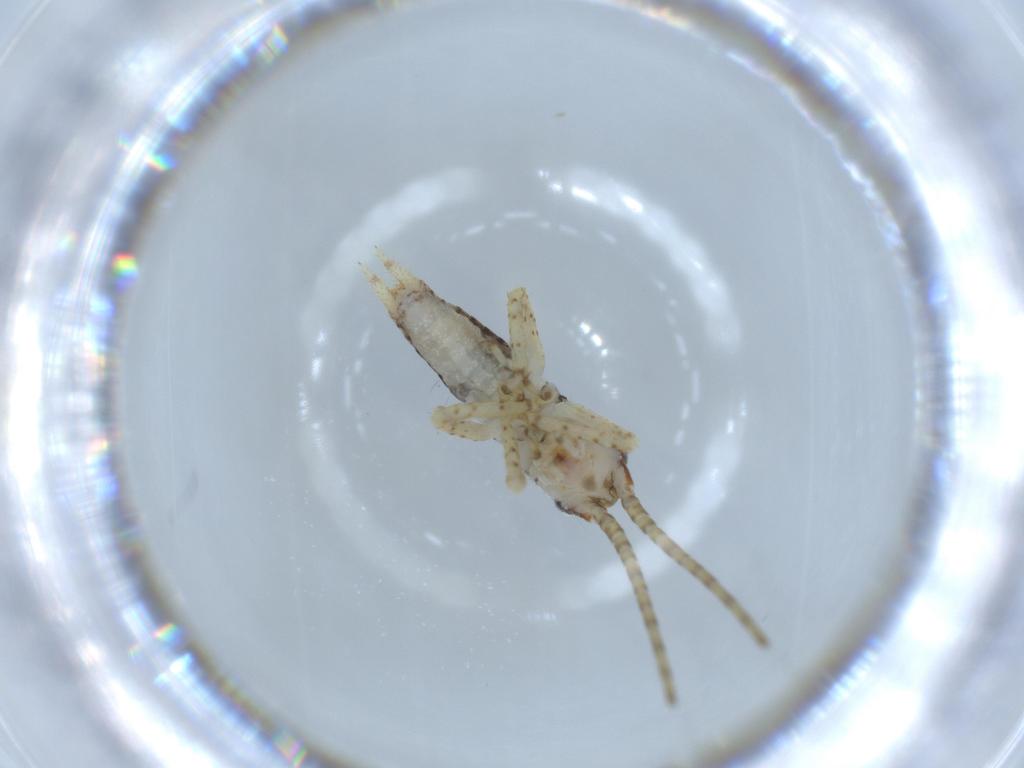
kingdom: Animalia
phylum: Arthropoda
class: Insecta
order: Orthoptera
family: Gryllidae
